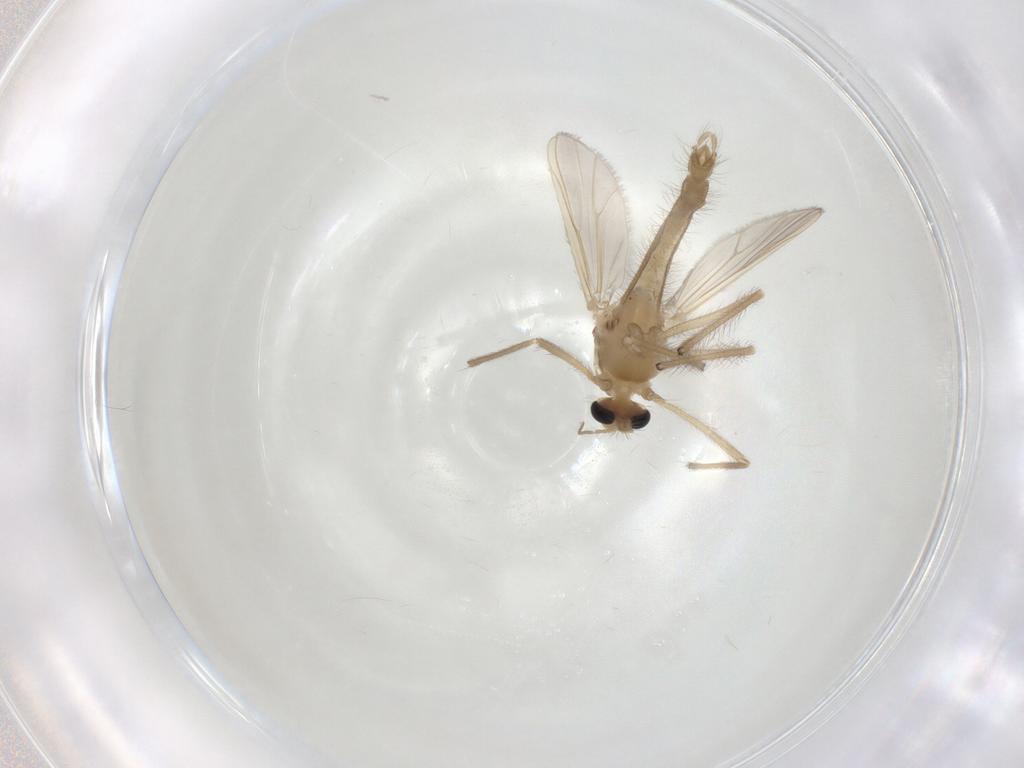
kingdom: Animalia
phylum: Arthropoda
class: Insecta
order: Diptera
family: Chironomidae
